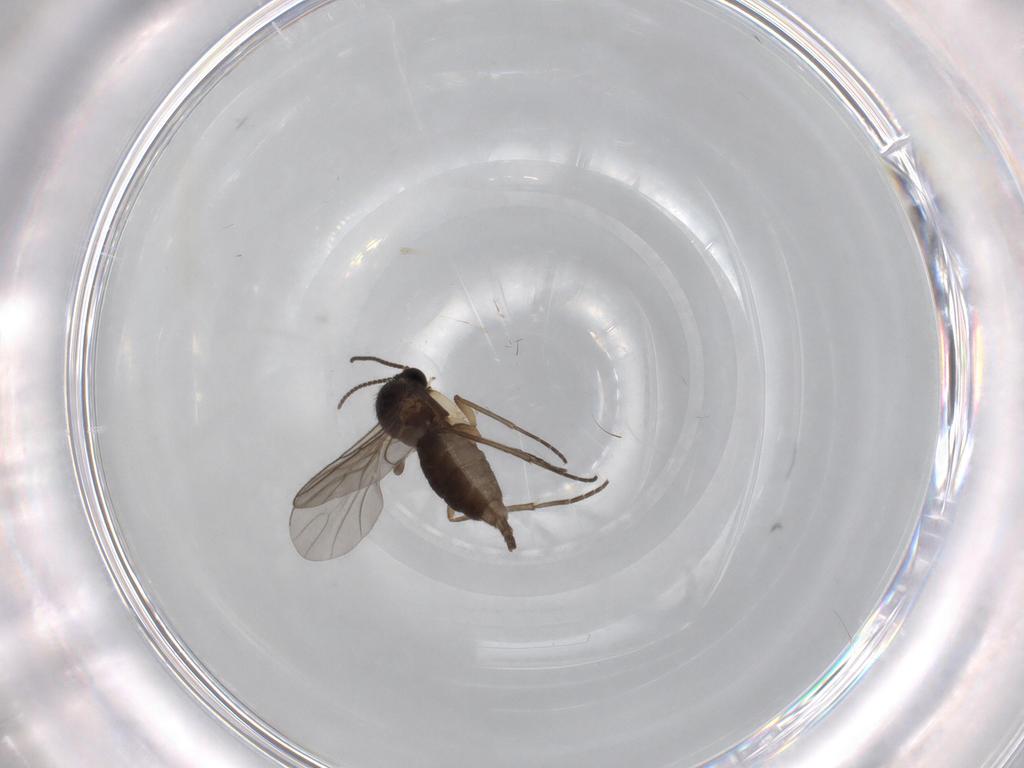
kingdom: Animalia
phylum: Arthropoda
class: Insecta
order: Diptera
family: Sciaridae
